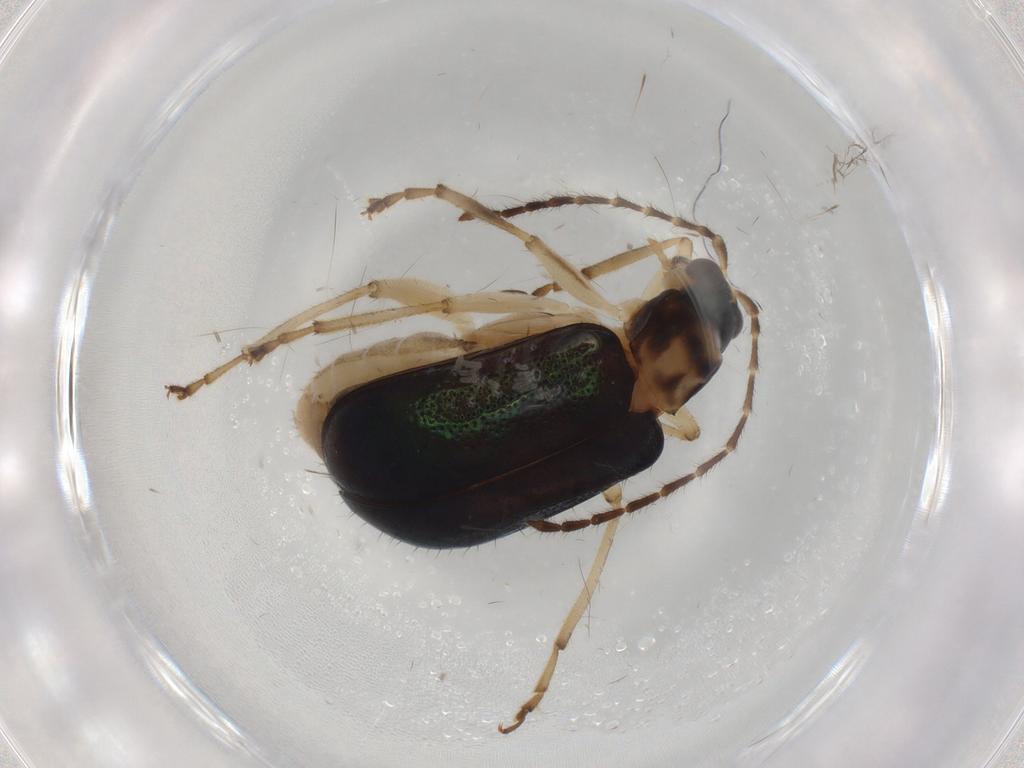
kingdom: Animalia
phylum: Arthropoda
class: Insecta
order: Coleoptera
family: Chrysomelidae
